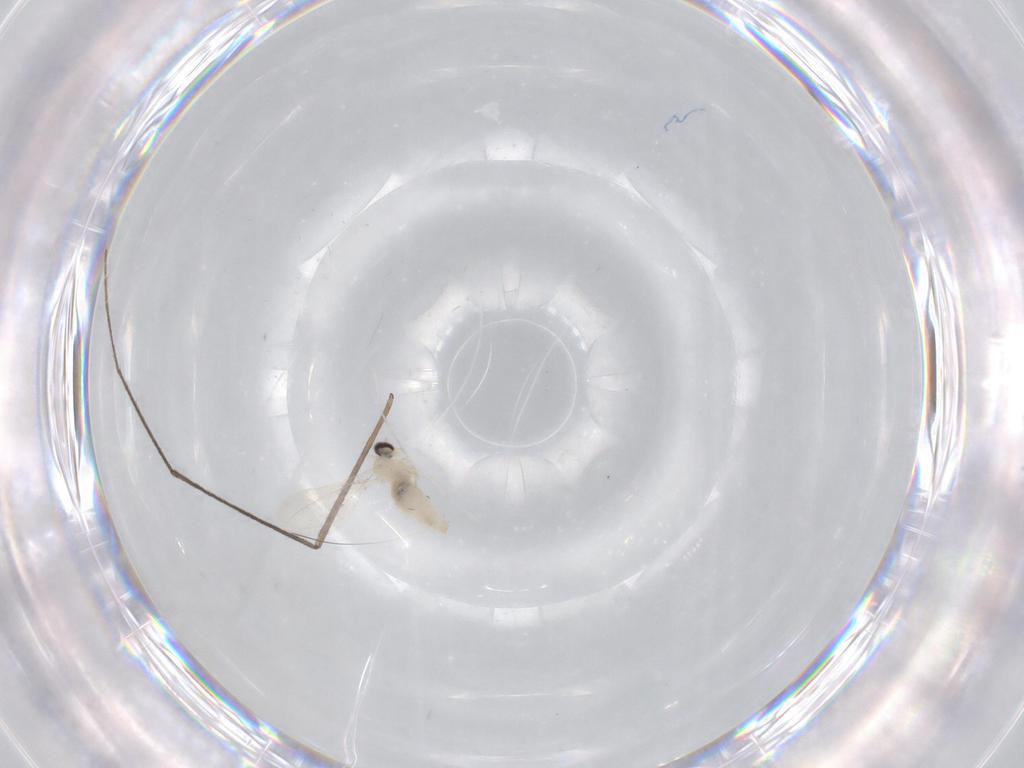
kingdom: Animalia
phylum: Arthropoda
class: Insecta
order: Diptera
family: Cecidomyiidae
